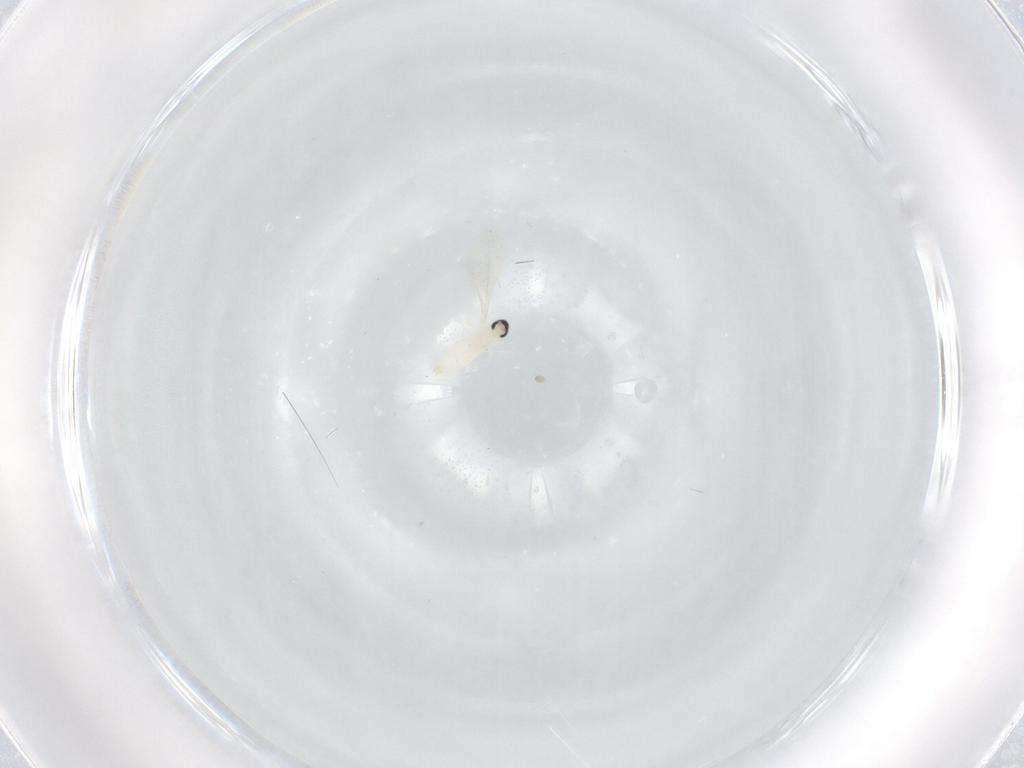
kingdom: Animalia
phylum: Arthropoda
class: Insecta
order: Diptera
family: Cecidomyiidae
